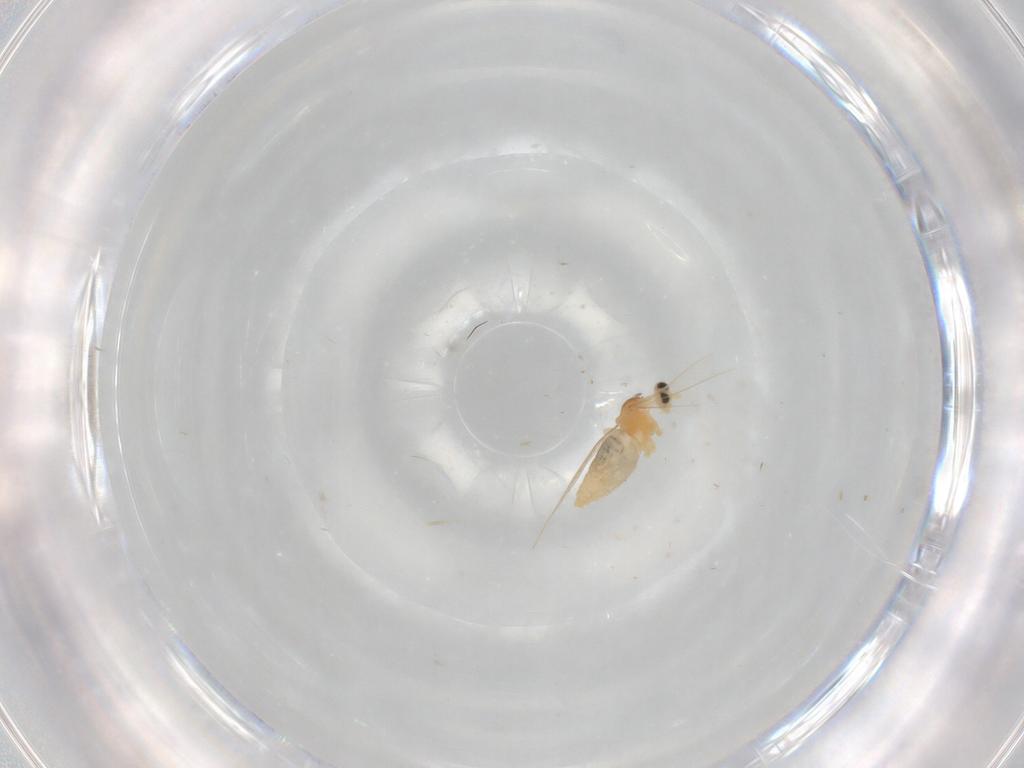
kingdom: Animalia
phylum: Arthropoda
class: Insecta
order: Diptera
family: Cecidomyiidae
